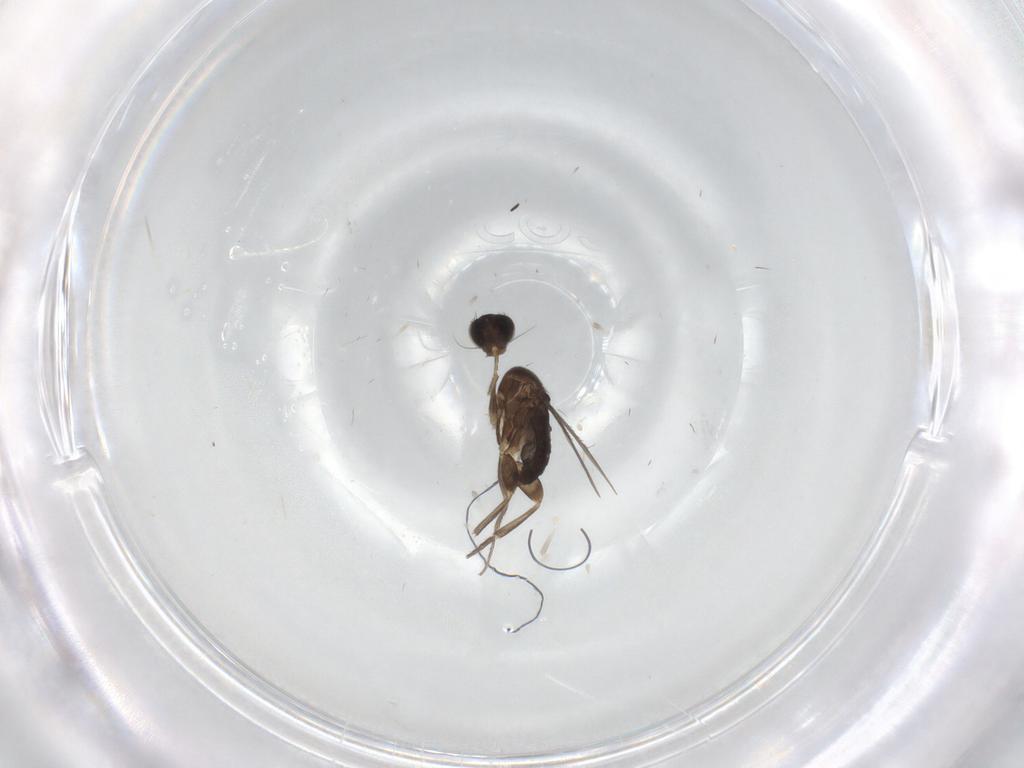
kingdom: Animalia
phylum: Arthropoda
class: Insecta
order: Diptera
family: Phoridae
